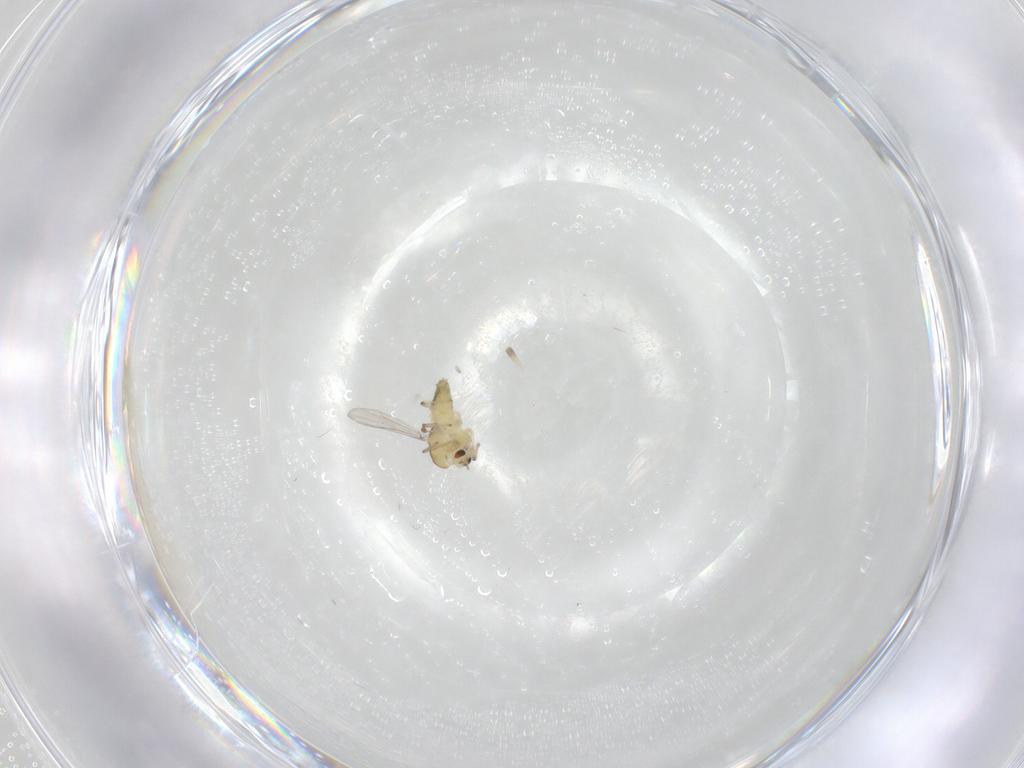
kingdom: Animalia
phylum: Arthropoda
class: Insecta
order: Diptera
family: Chironomidae
